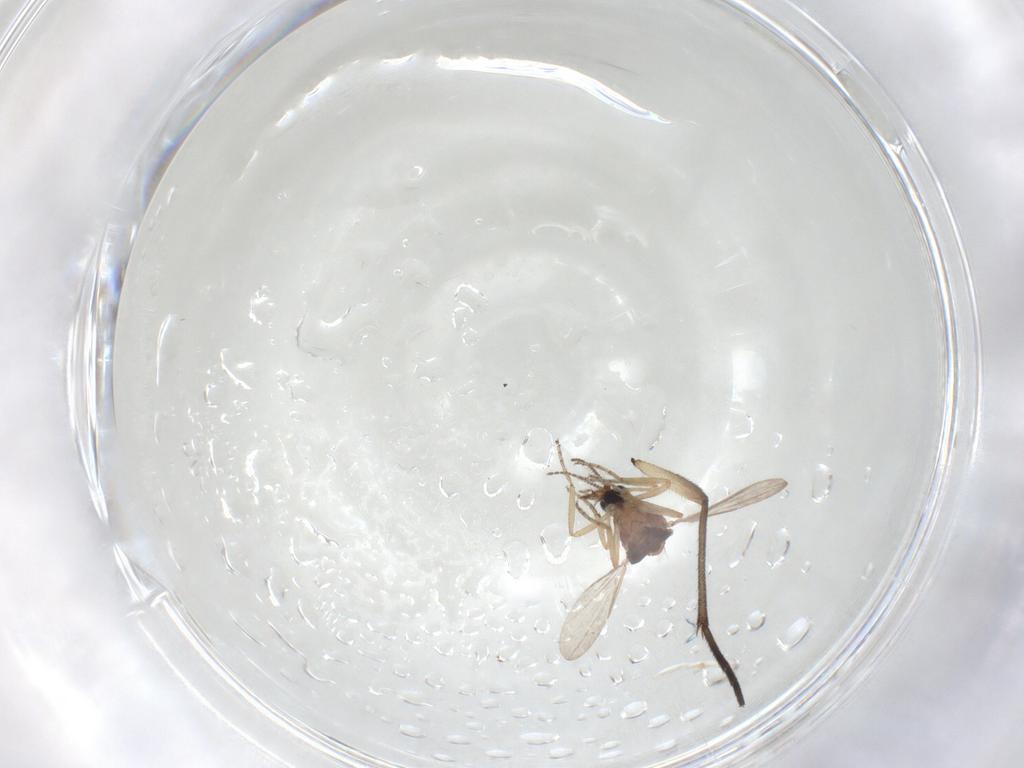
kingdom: Animalia
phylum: Arthropoda
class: Insecta
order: Diptera
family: Ceratopogonidae
